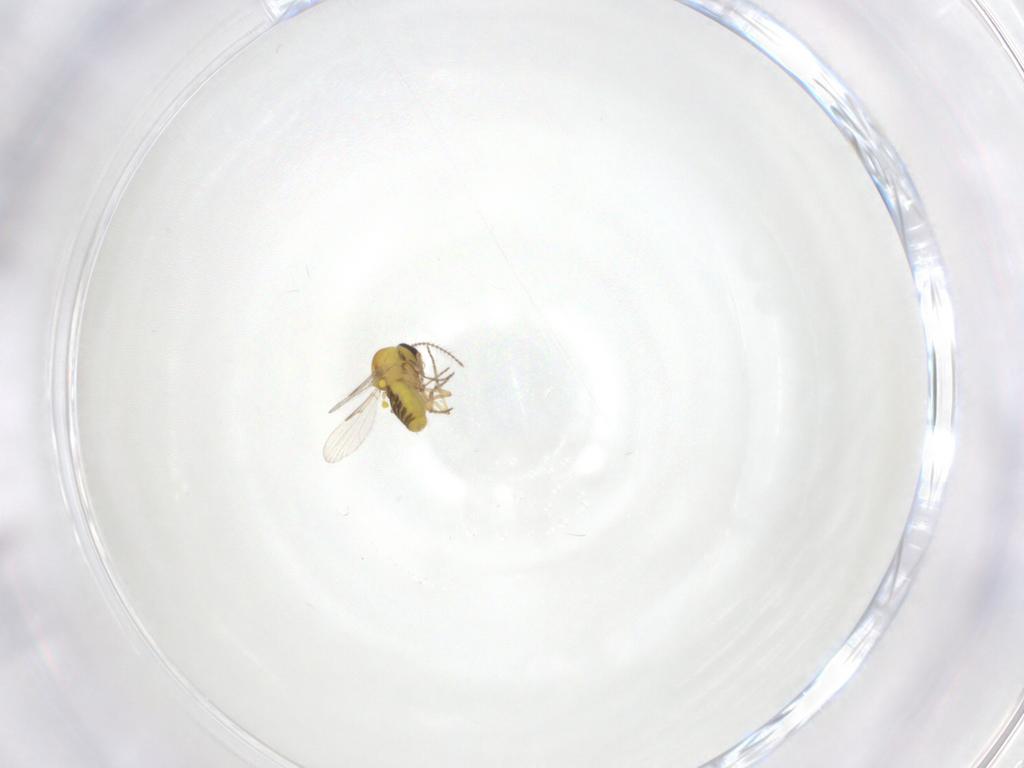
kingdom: Animalia
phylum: Arthropoda
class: Insecta
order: Diptera
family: Ceratopogonidae
